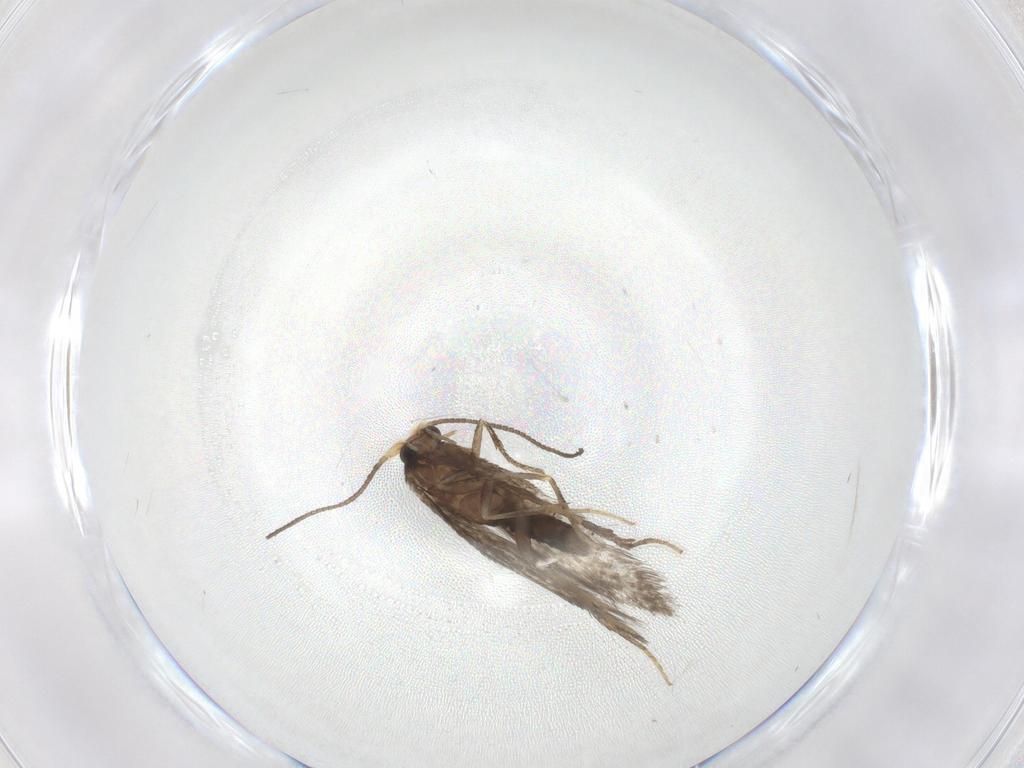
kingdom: Animalia
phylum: Arthropoda
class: Insecta
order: Lepidoptera
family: Nepticulidae
